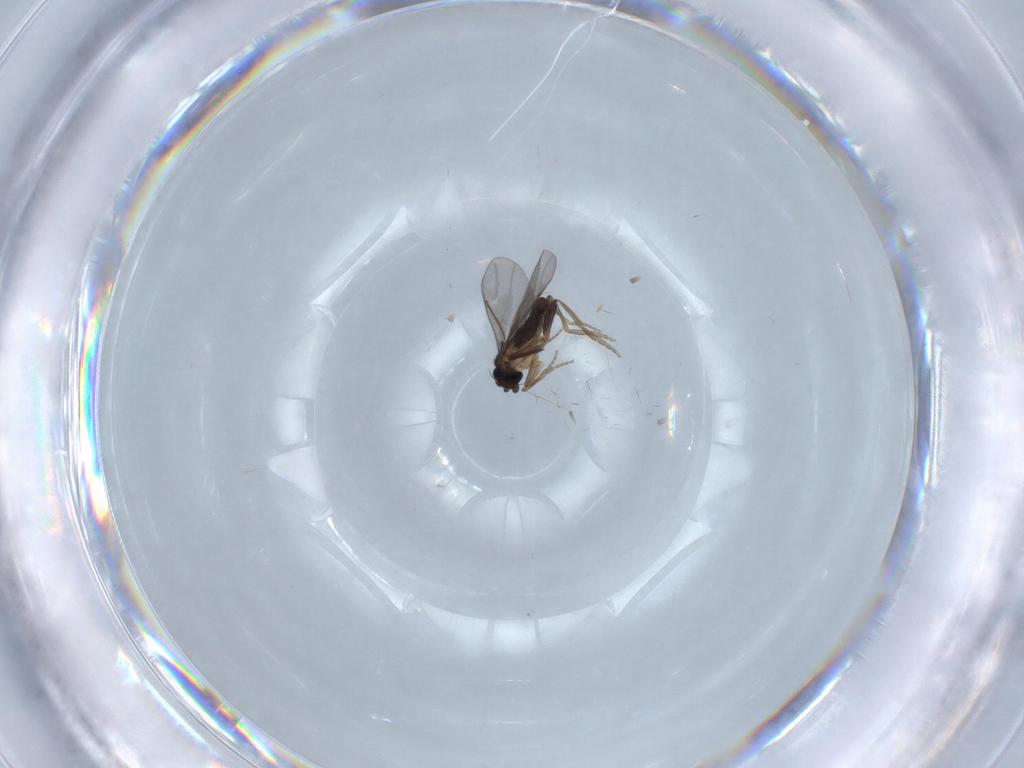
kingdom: Animalia
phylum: Arthropoda
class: Insecta
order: Diptera
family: Chironomidae
